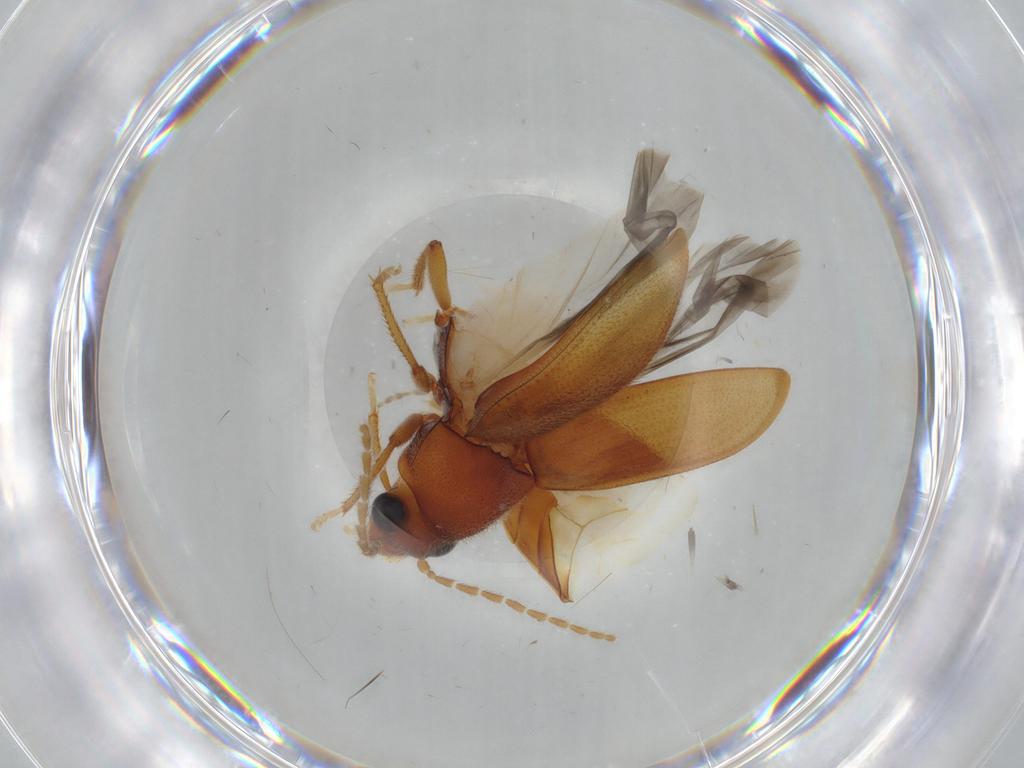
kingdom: Animalia
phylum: Arthropoda
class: Insecta
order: Coleoptera
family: Ptilodactylidae
